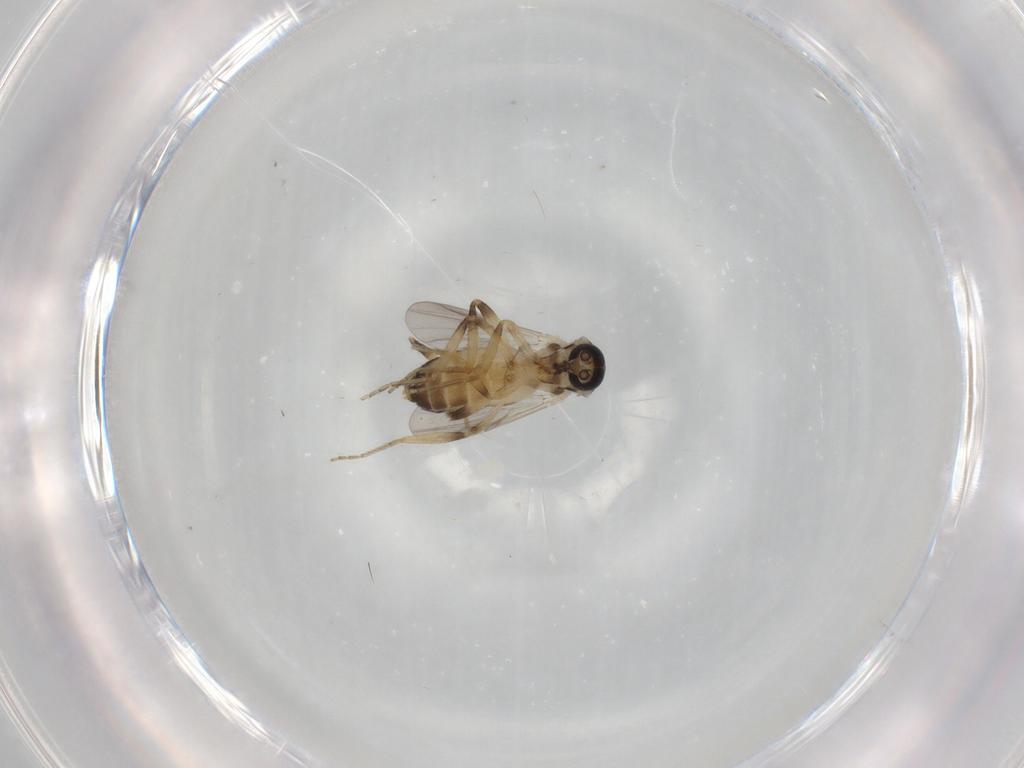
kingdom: Animalia
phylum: Arthropoda
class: Insecta
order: Diptera
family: Ceratopogonidae
